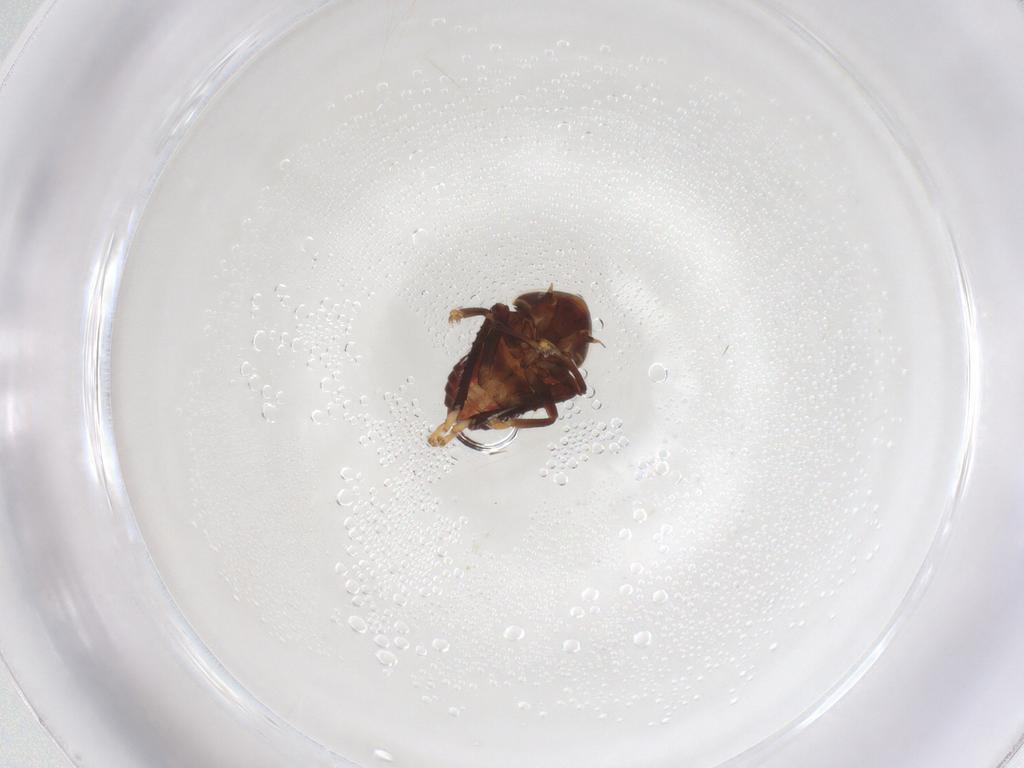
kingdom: Animalia
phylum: Arthropoda
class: Insecta
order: Hemiptera
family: Cicadellidae
